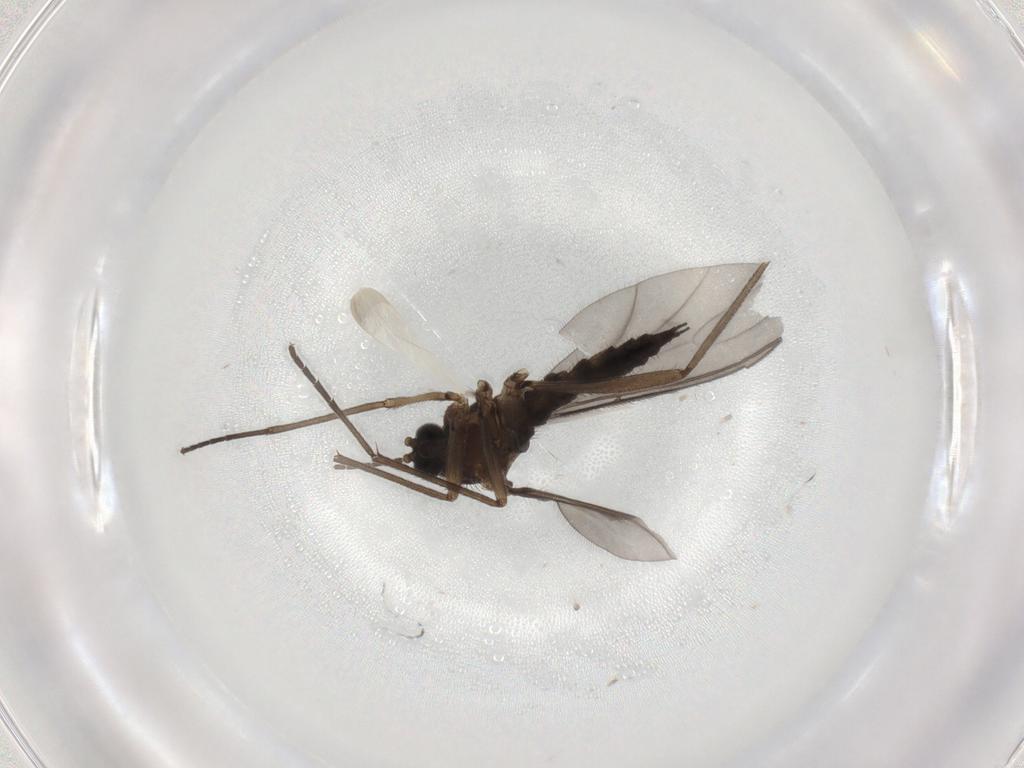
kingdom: Animalia
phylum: Arthropoda
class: Insecta
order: Diptera
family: Sciaridae
